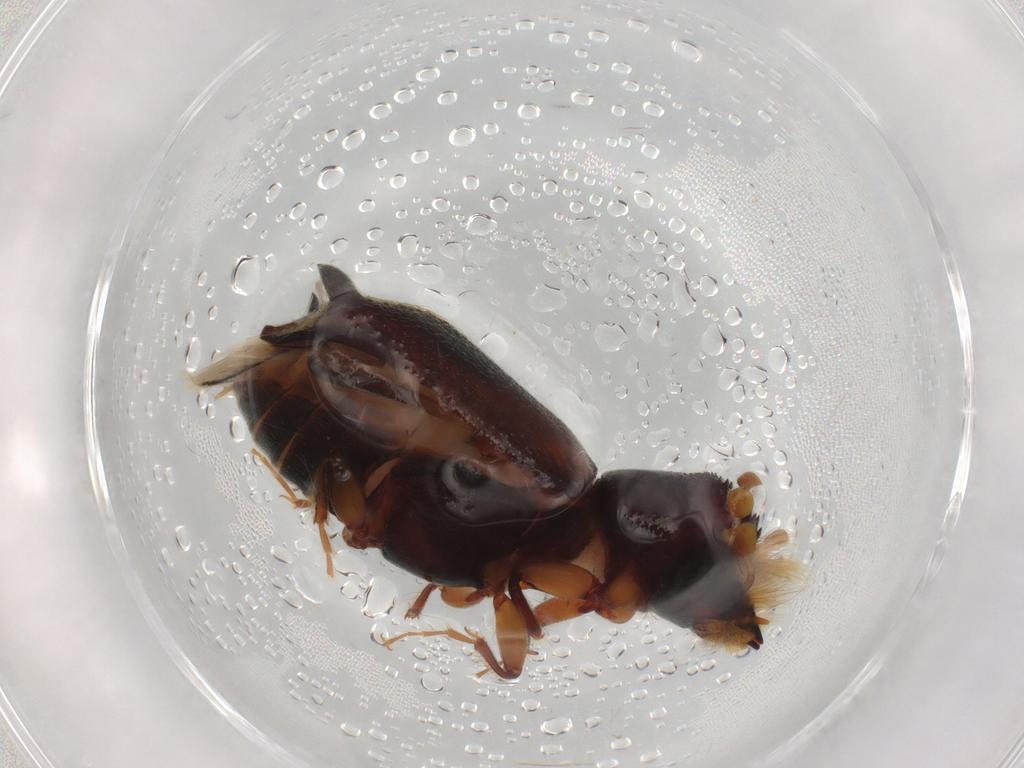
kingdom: Animalia
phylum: Arthropoda
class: Insecta
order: Coleoptera
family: Bostrichidae
